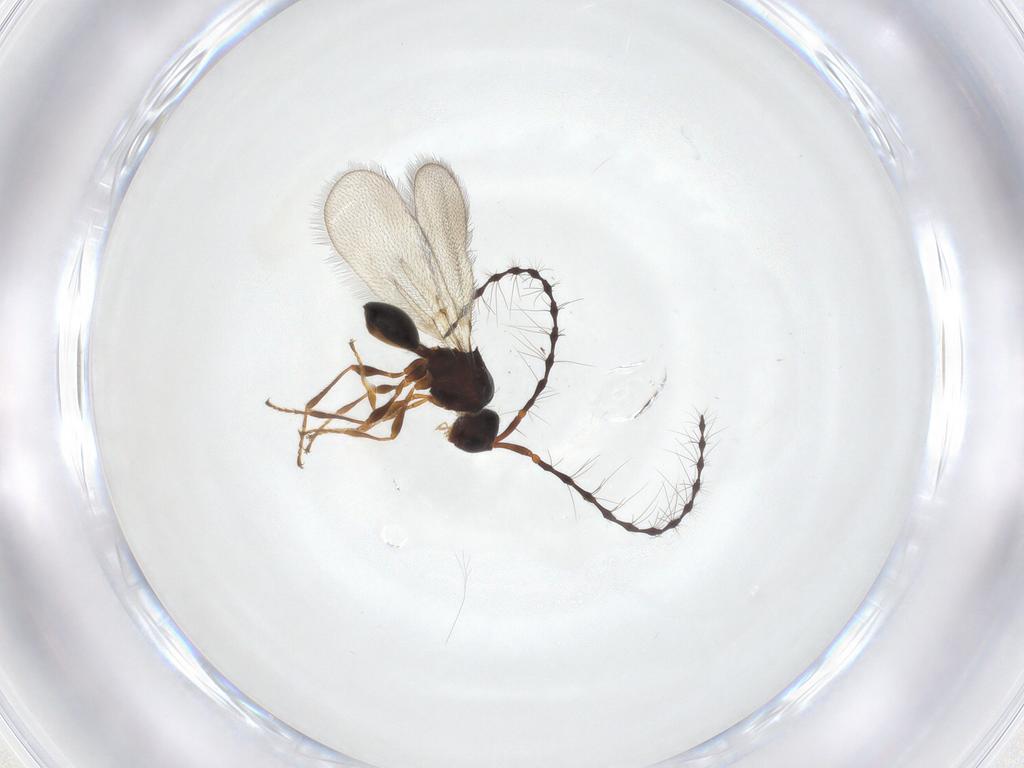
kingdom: Animalia
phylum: Arthropoda
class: Insecta
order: Hymenoptera
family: Diapriidae
